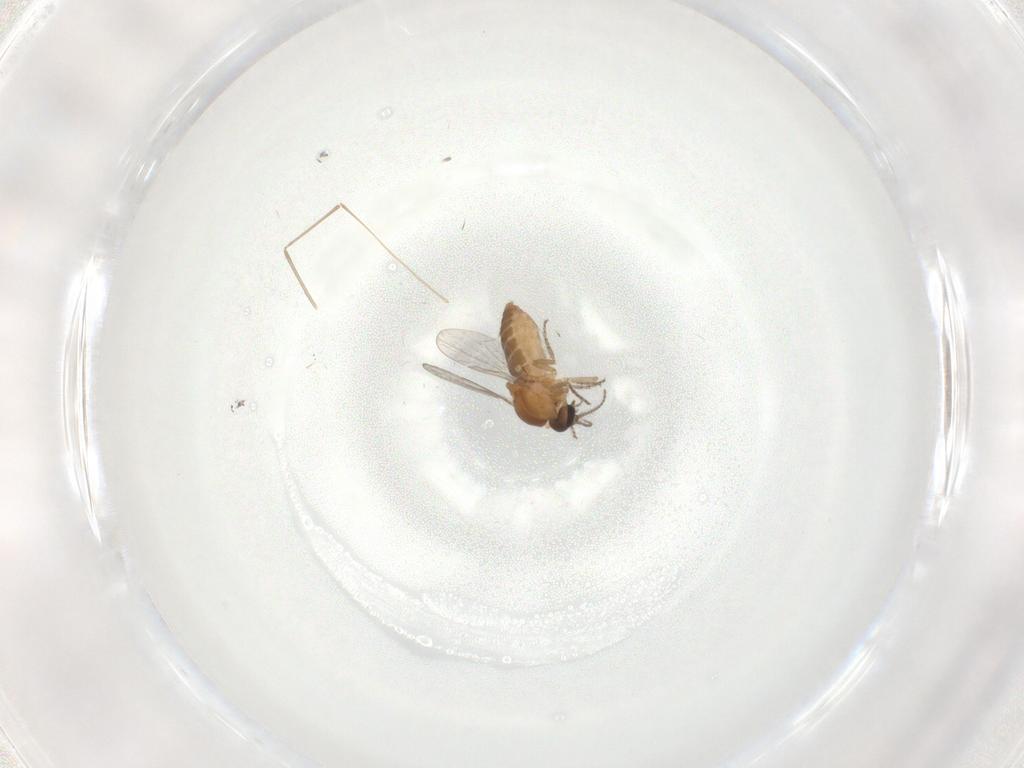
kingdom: Animalia
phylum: Arthropoda
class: Insecta
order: Diptera
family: Ceratopogonidae
